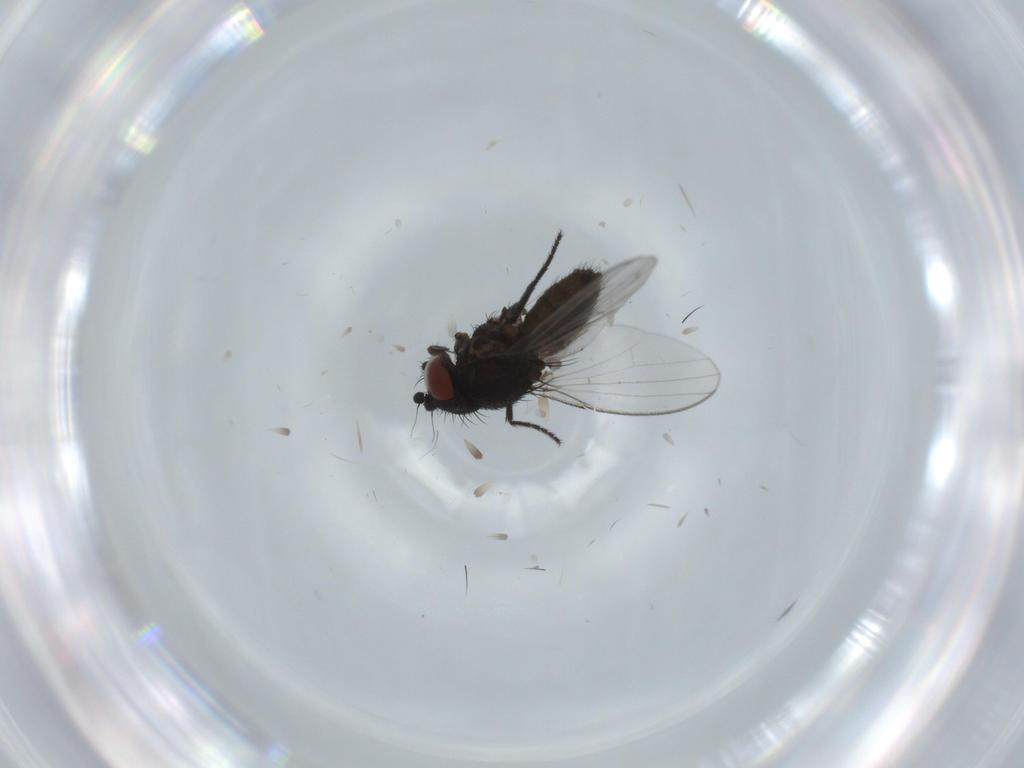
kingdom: Animalia
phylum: Arthropoda
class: Insecta
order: Diptera
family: Milichiidae
